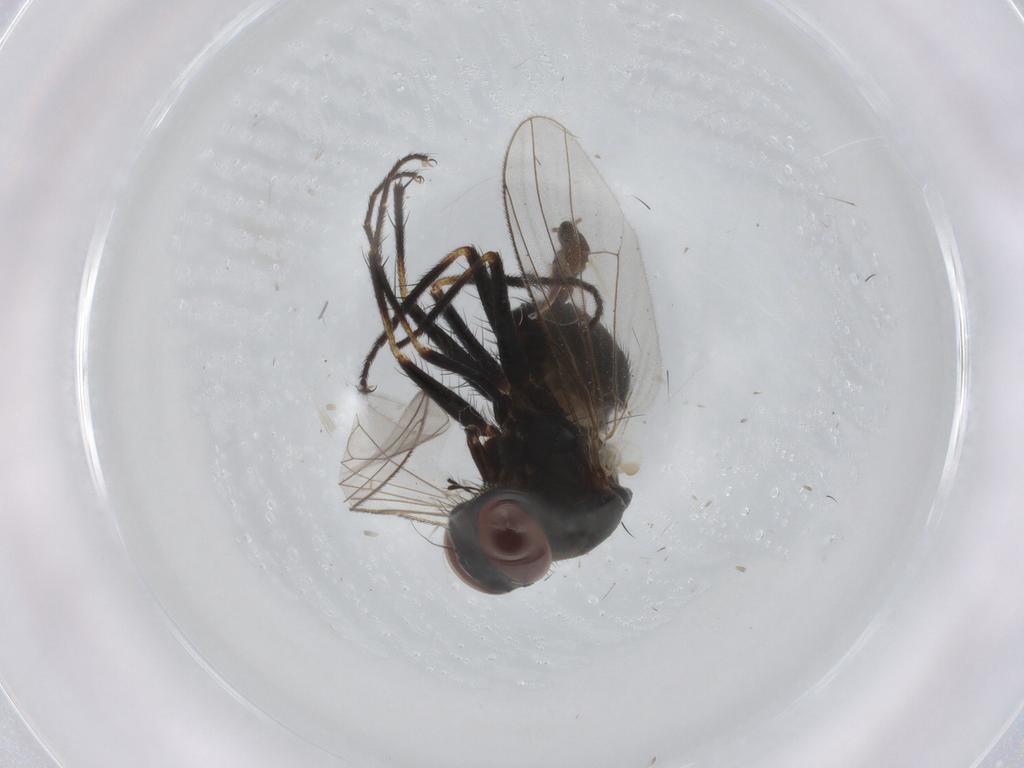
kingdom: Animalia
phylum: Arthropoda
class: Insecta
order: Diptera
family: Muscidae
